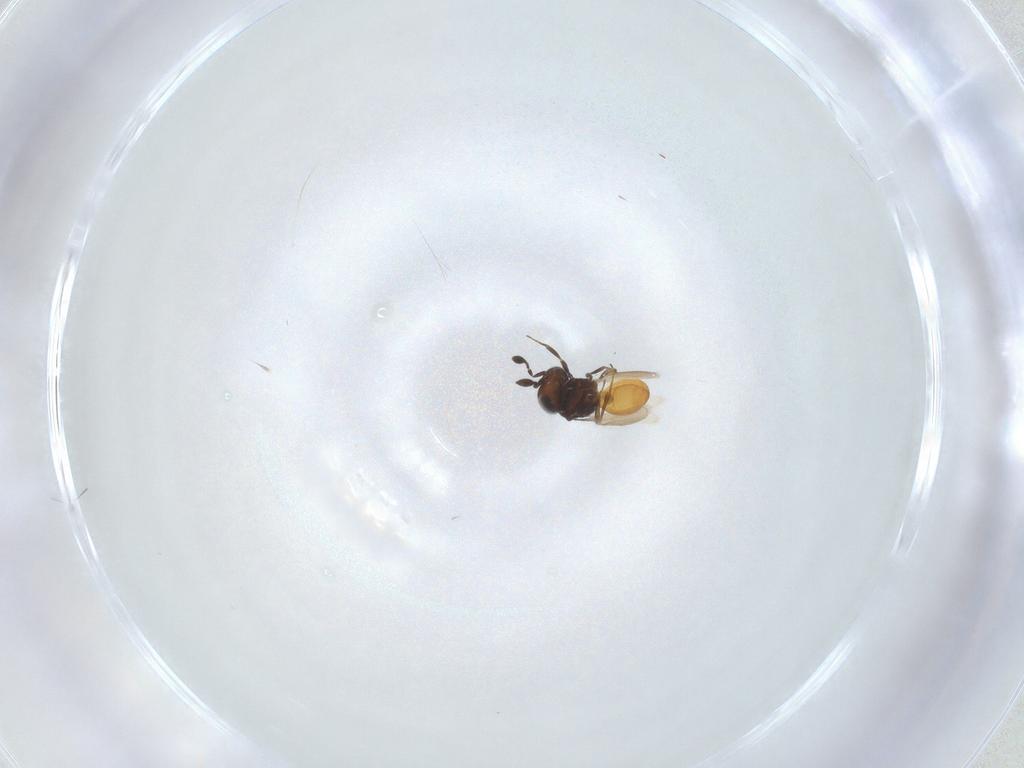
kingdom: Animalia
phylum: Arthropoda
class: Insecta
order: Hymenoptera
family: Scelionidae
